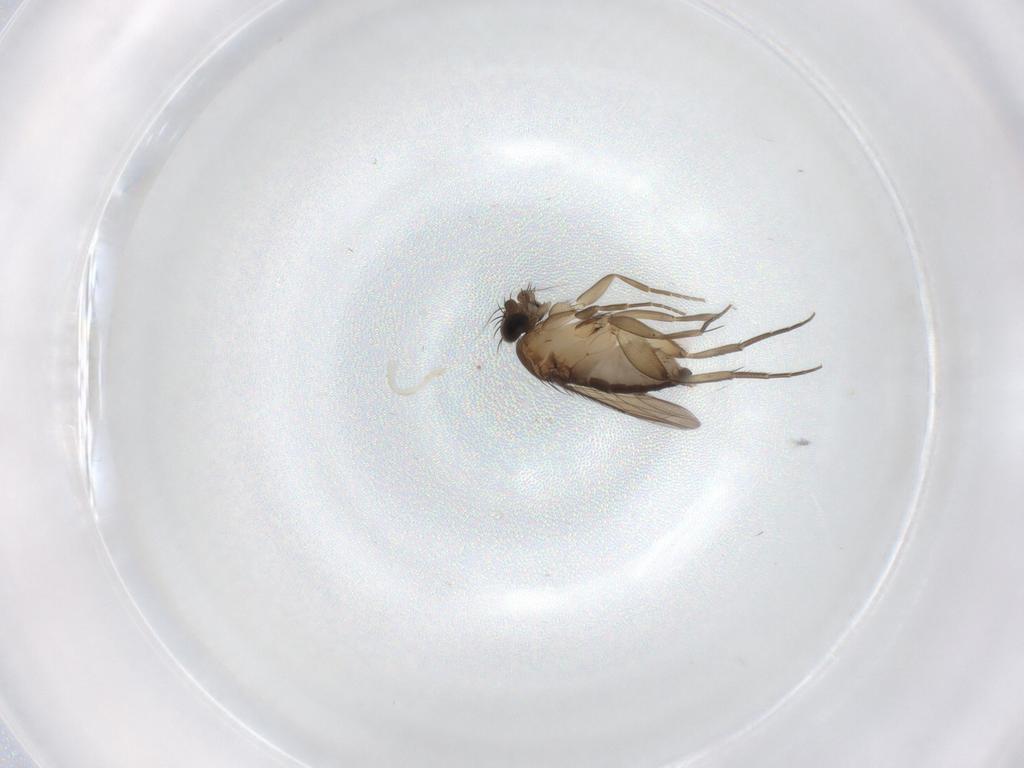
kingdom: Animalia
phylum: Arthropoda
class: Insecta
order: Diptera
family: Phoridae
